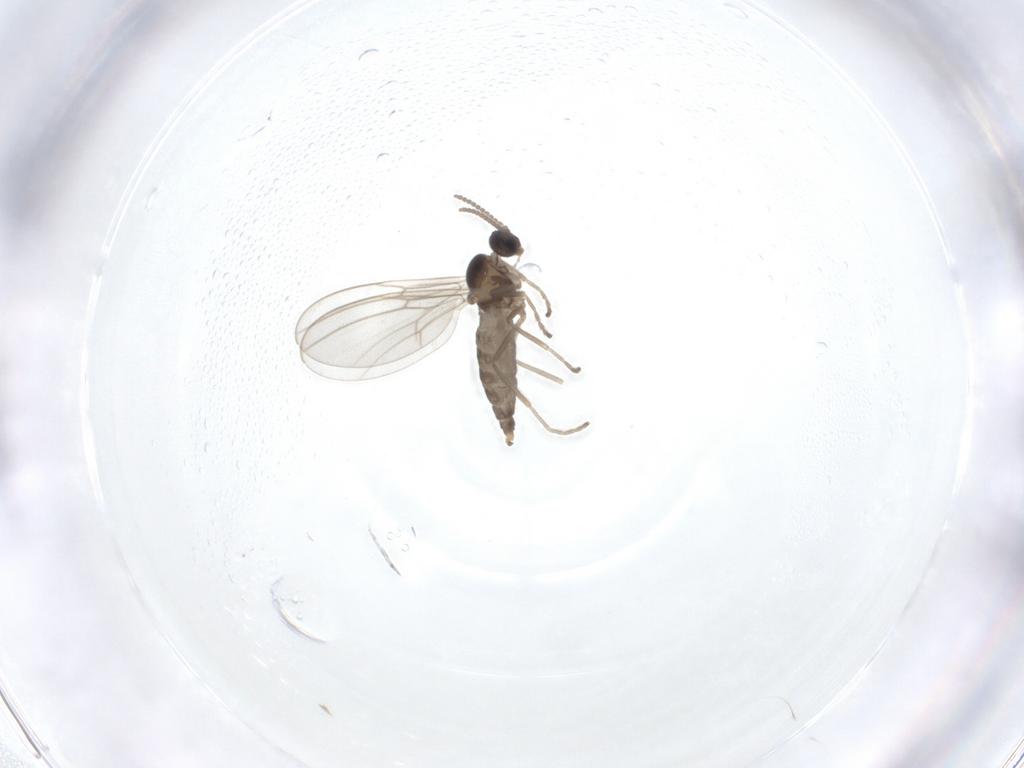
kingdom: Animalia
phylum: Arthropoda
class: Insecta
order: Diptera
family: Cecidomyiidae
